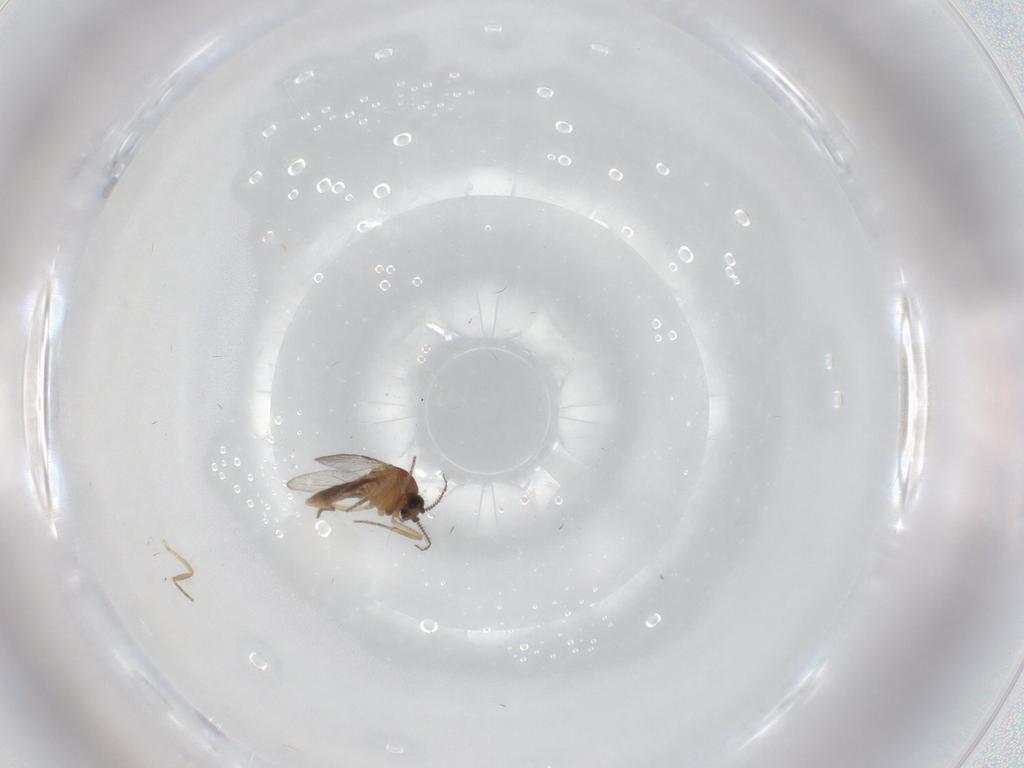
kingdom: Animalia
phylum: Arthropoda
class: Insecta
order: Diptera
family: Ceratopogonidae
